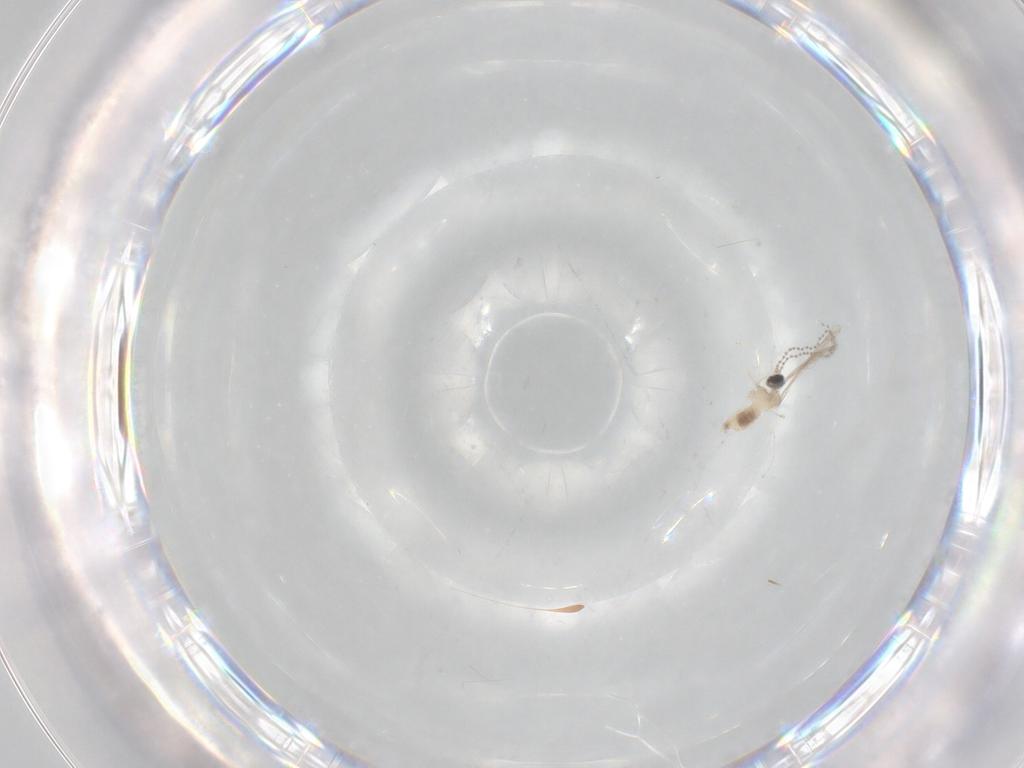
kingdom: Animalia
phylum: Arthropoda
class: Insecta
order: Diptera
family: Cecidomyiidae
